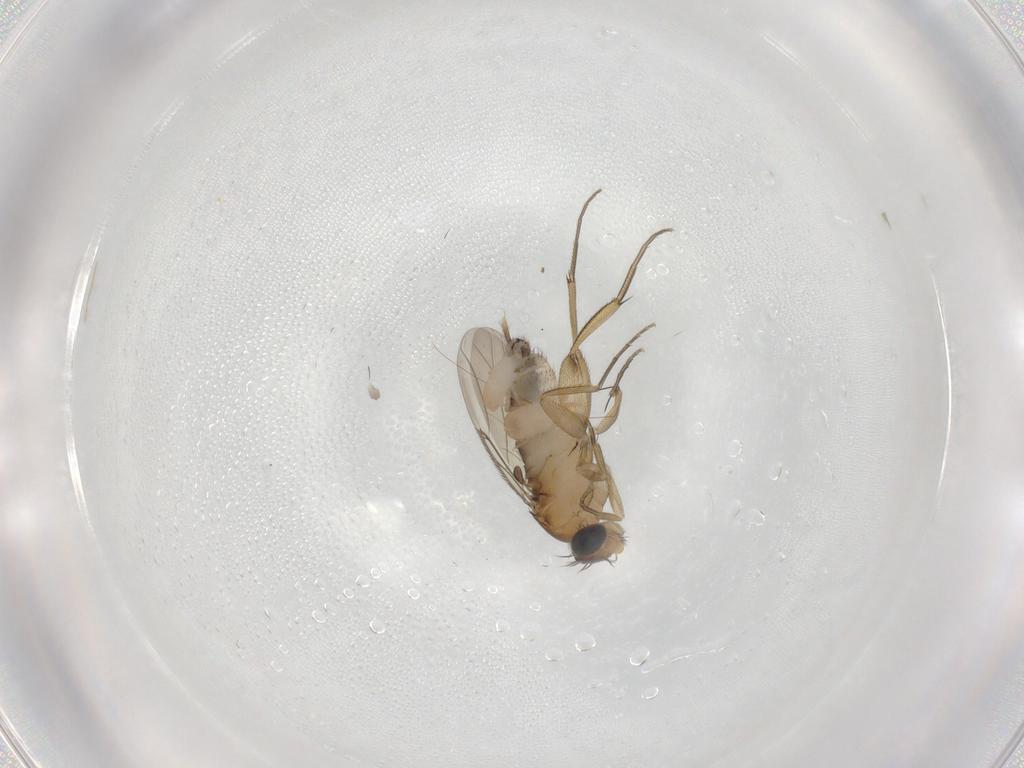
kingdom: Animalia
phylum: Arthropoda
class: Insecta
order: Diptera
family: Phoridae
